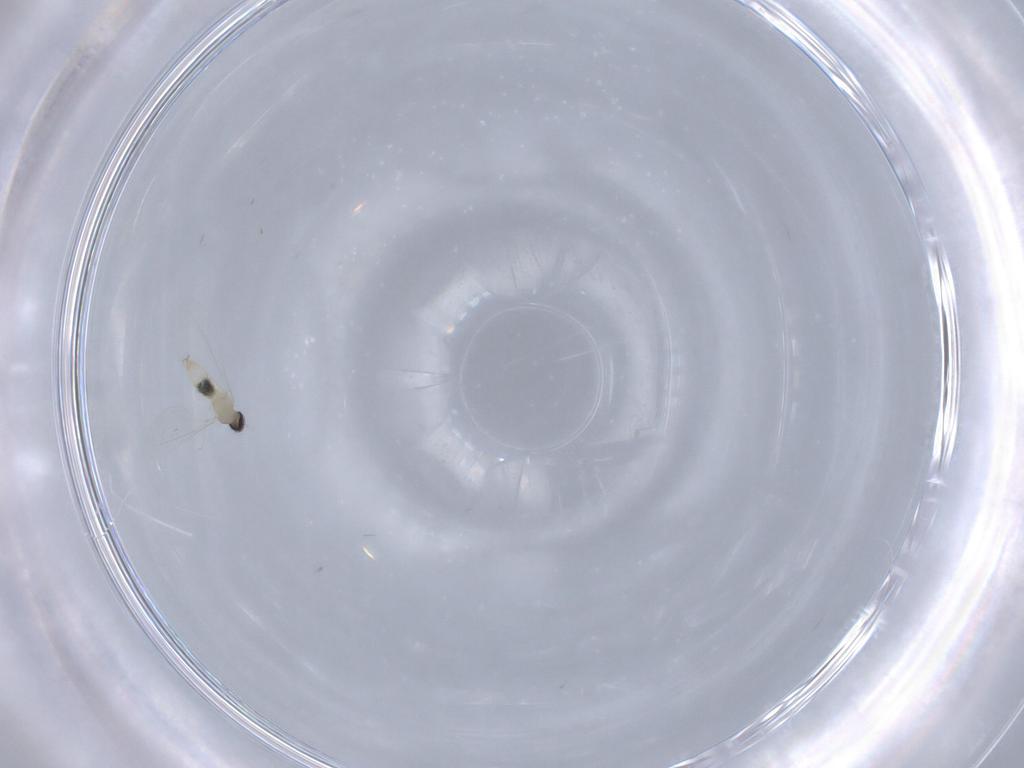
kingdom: Animalia
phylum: Arthropoda
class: Insecta
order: Diptera
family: Cecidomyiidae
